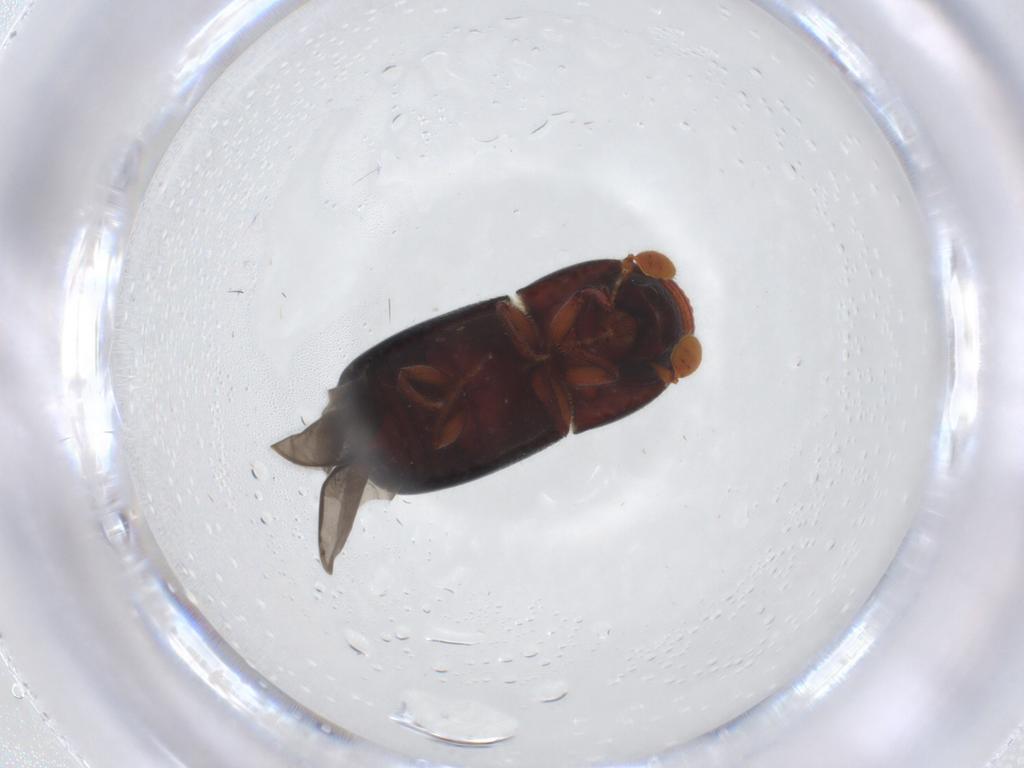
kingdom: Animalia
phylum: Arthropoda
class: Insecta
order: Coleoptera
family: Curculionidae
